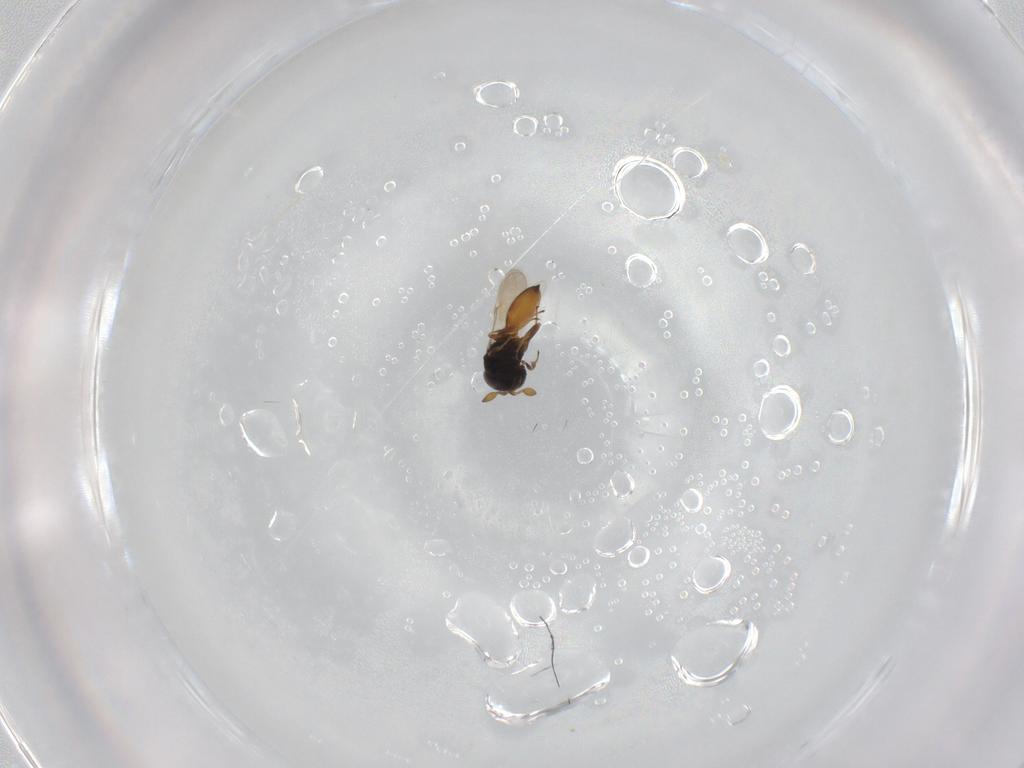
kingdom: Animalia
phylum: Arthropoda
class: Insecta
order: Hymenoptera
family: Scelionidae
